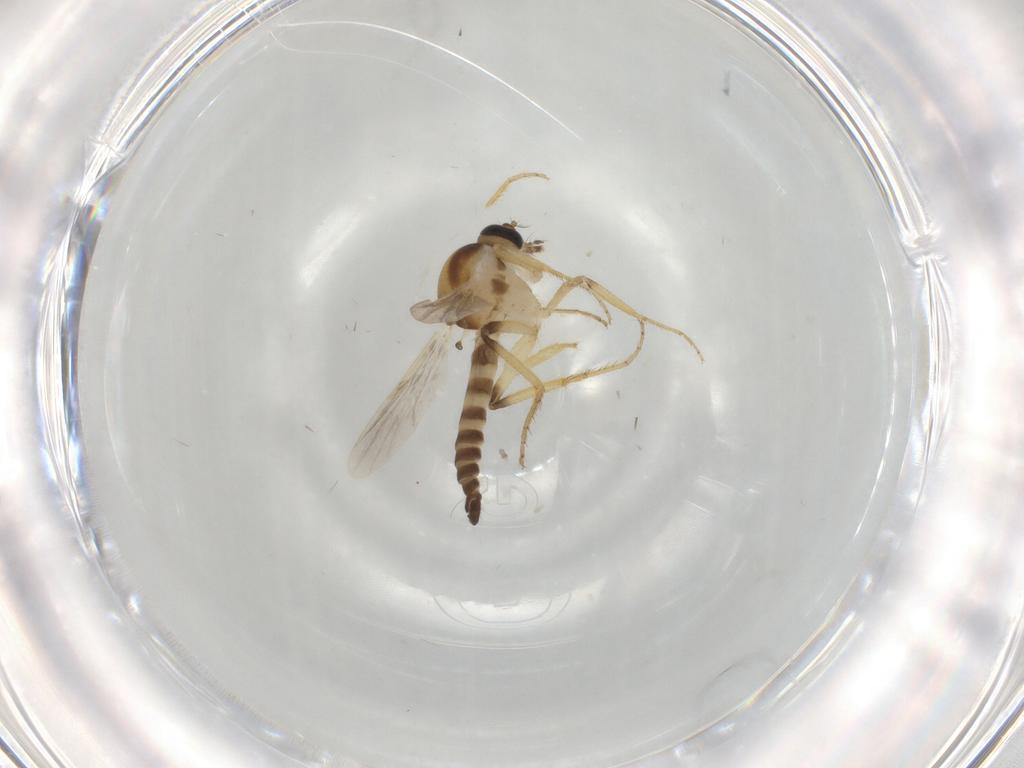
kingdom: Animalia
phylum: Arthropoda
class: Insecta
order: Diptera
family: Ceratopogonidae
